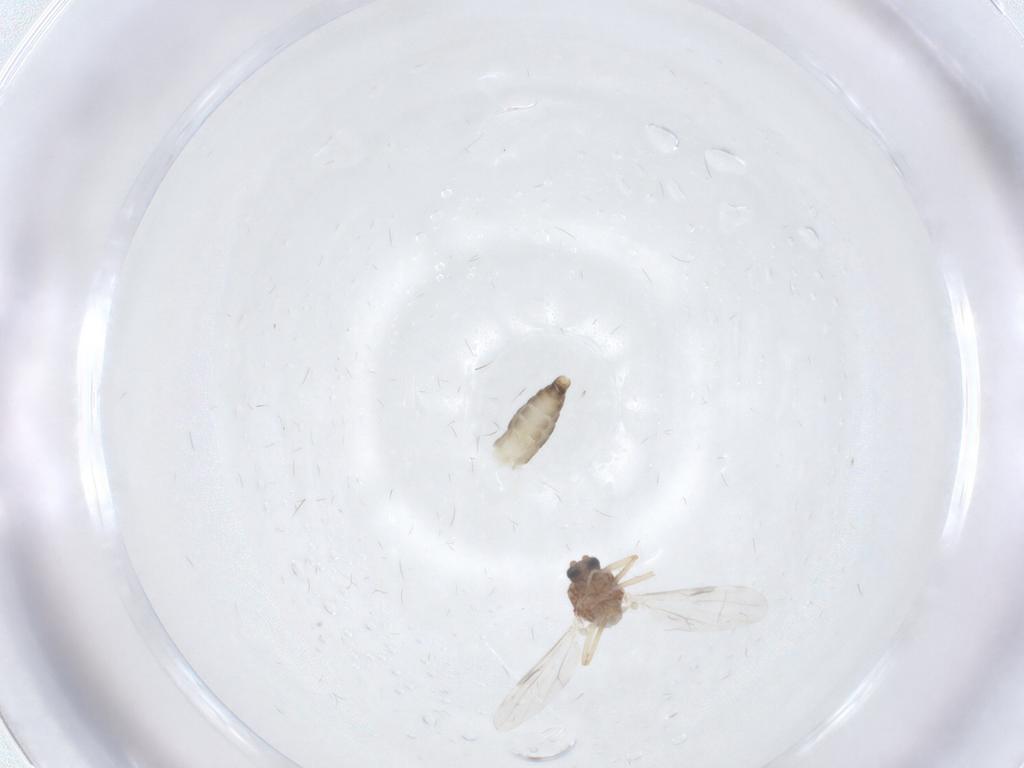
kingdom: Animalia
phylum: Arthropoda
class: Insecta
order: Diptera
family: Ceratopogonidae
